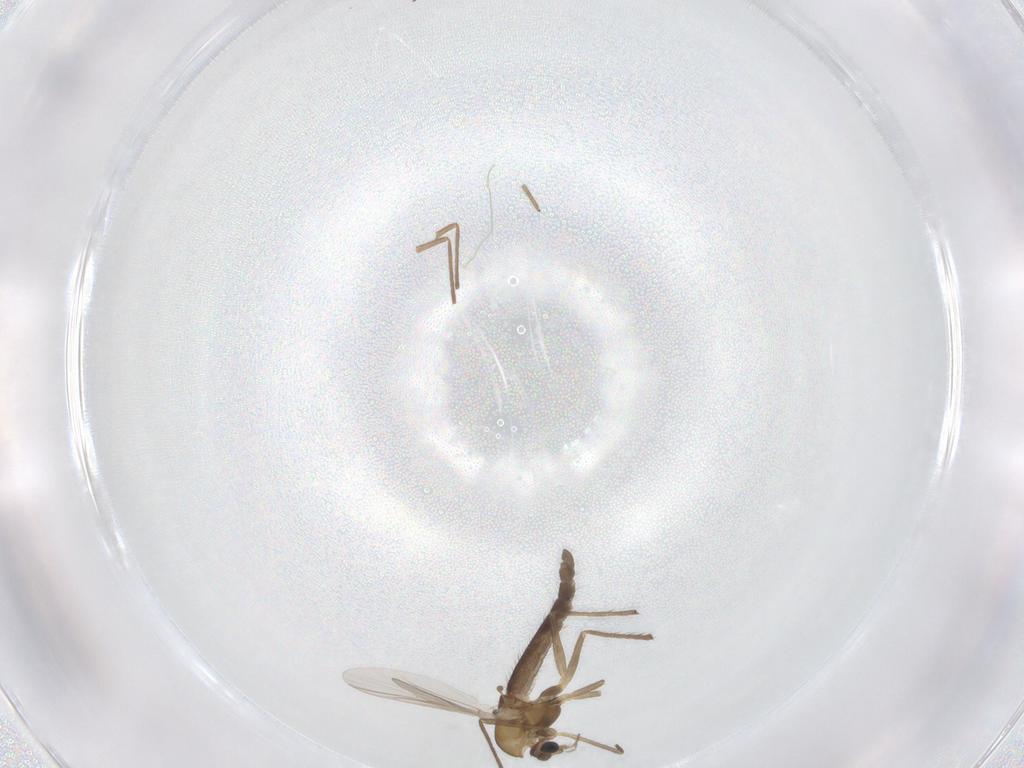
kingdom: Animalia
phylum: Arthropoda
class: Insecta
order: Diptera
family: Chironomidae
